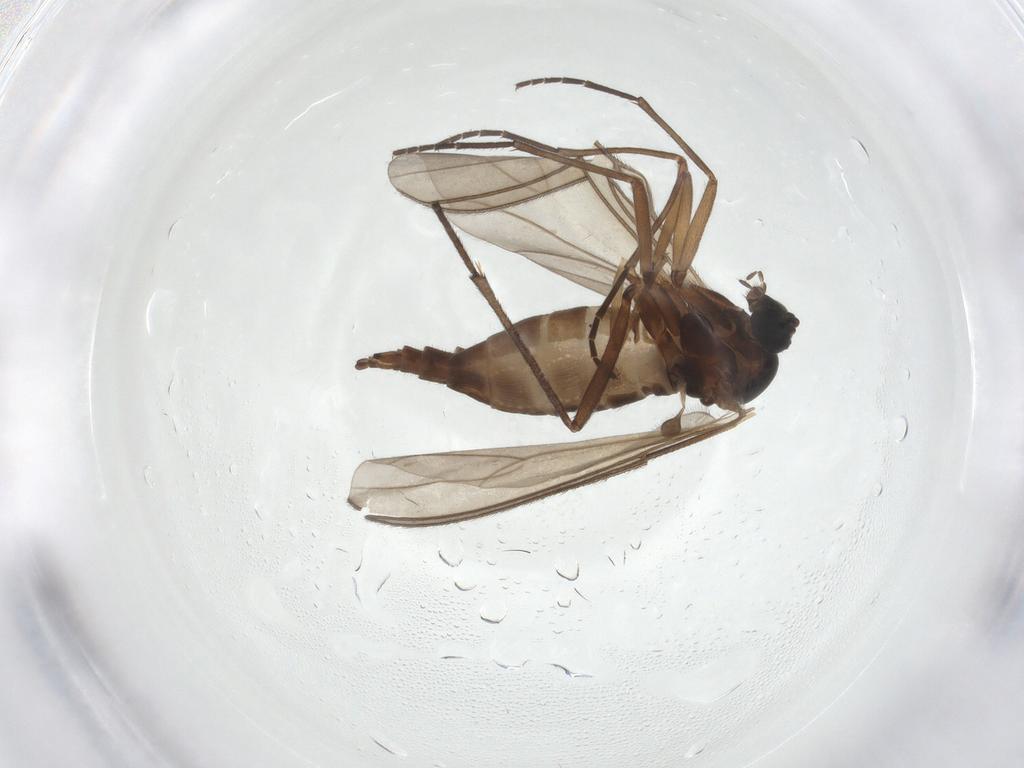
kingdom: Animalia
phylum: Arthropoda
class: Insecta
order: Diptera
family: Sciaridae
